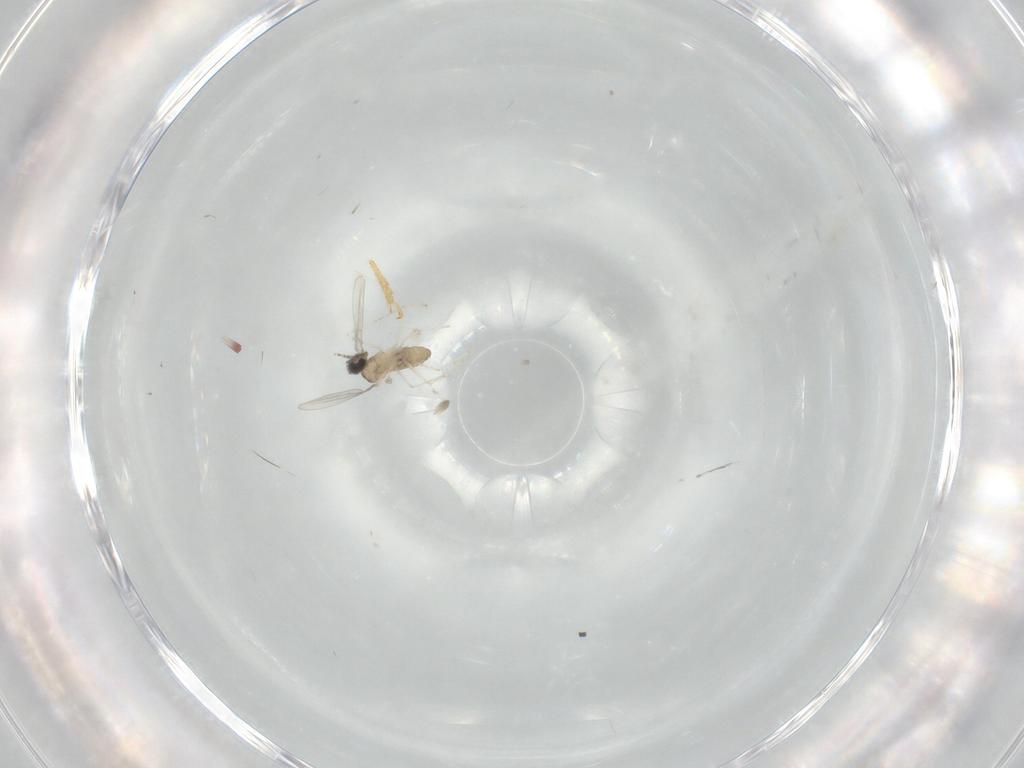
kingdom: Animalia
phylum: Arthropoda
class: Insecta
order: Diptera
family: Cecidomyiidae
